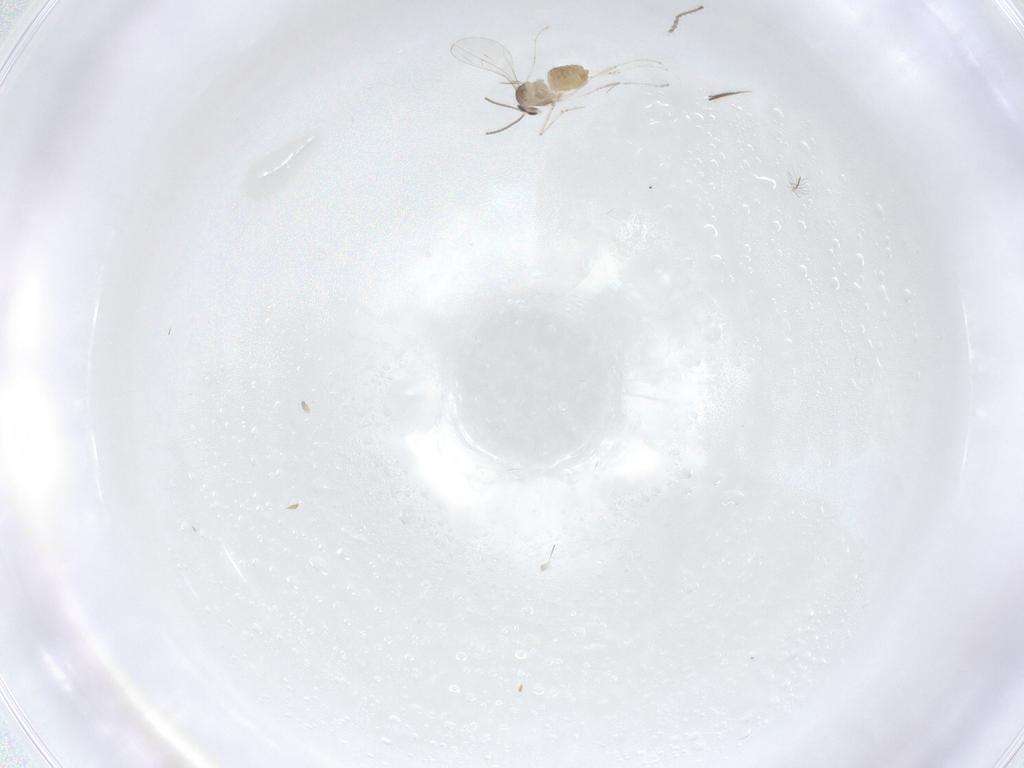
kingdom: Animalia
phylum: Arthropoda
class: Insecta
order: Diptera
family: Cecidomyiidae
